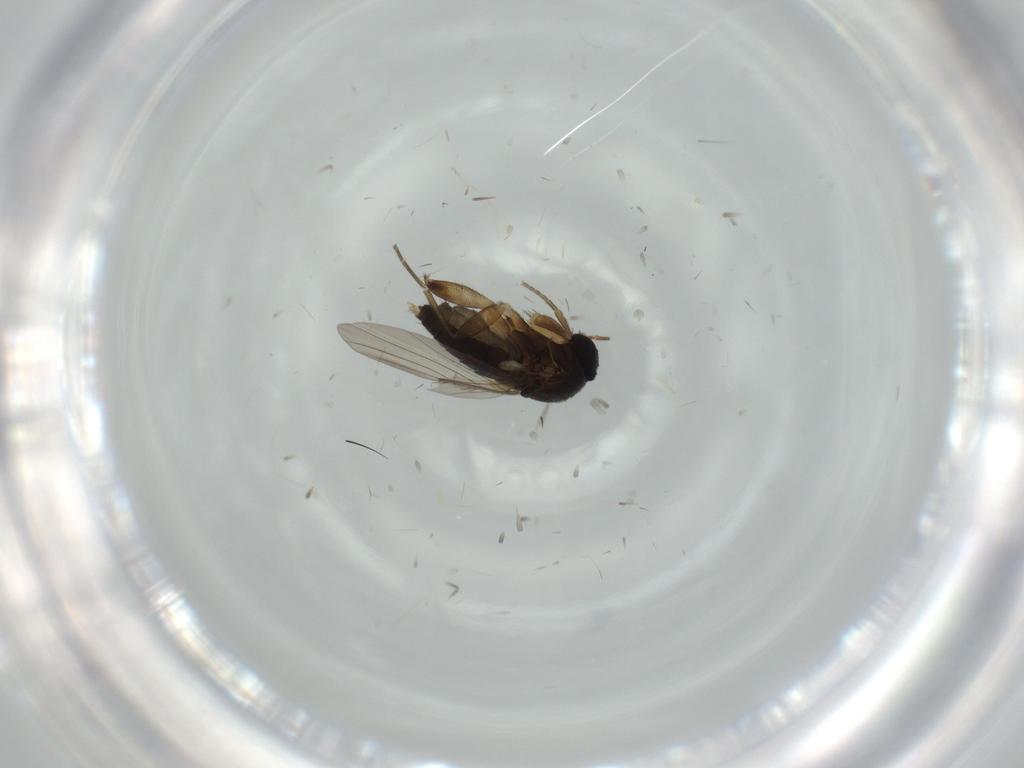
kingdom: Animalia
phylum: Arthropoda
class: Insecta
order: Diptera
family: Phoridae
